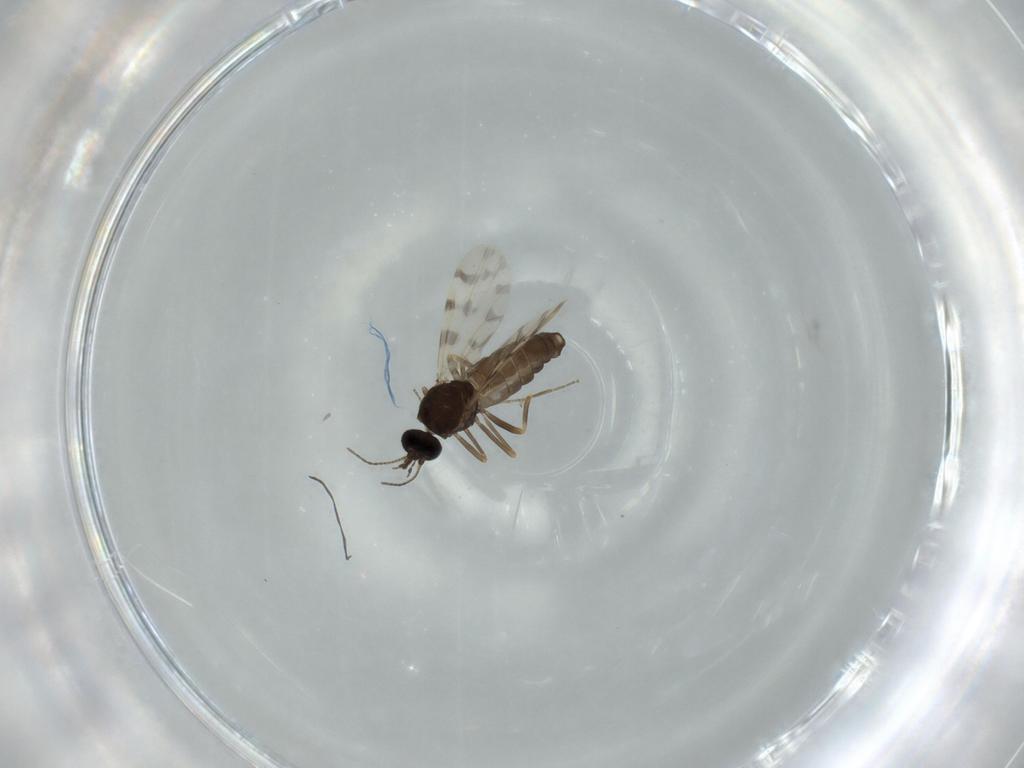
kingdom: Animalia
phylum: Arthropoda
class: Insecta
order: Diptera
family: Ceratopogonidae
